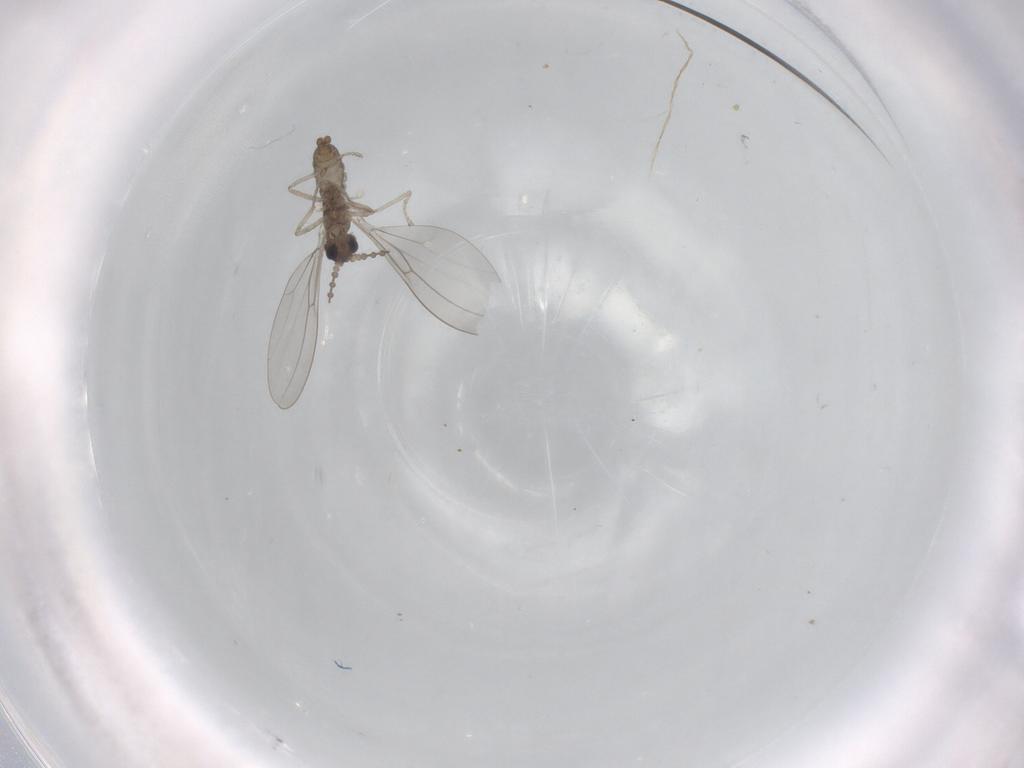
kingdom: Animalia
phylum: Arthropoda
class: Insecta
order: Diptera
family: Cecidomyiidae
